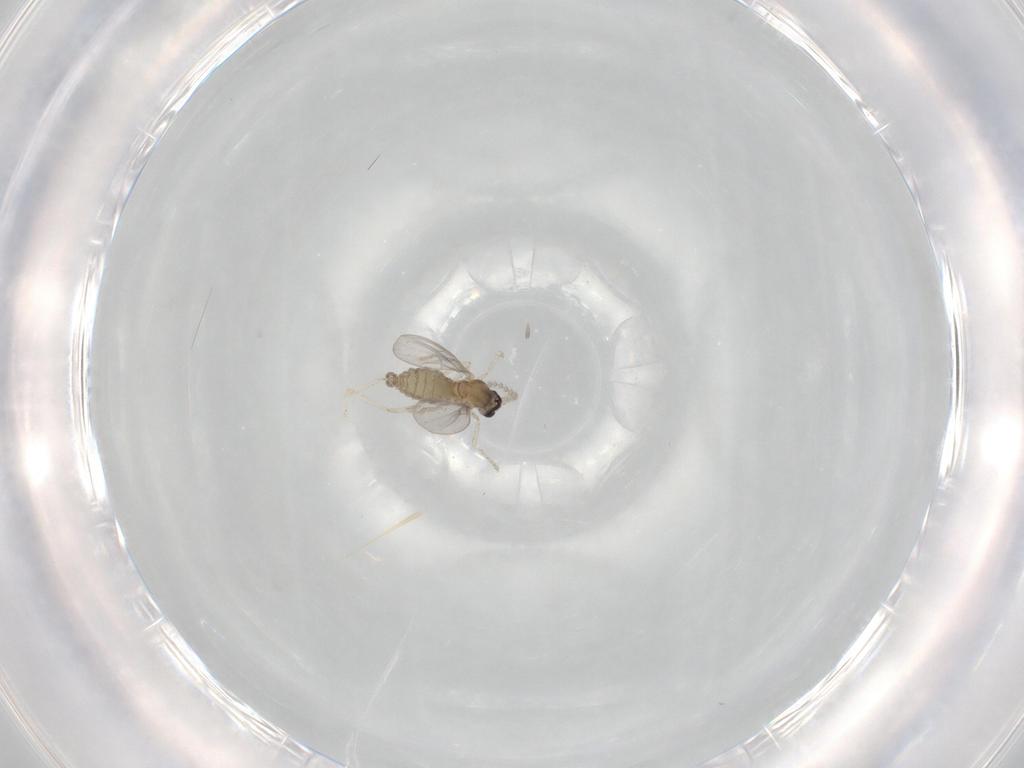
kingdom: Animalia
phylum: Arthropoda
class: Insecta
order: Diptera
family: Cecidomyiidae
